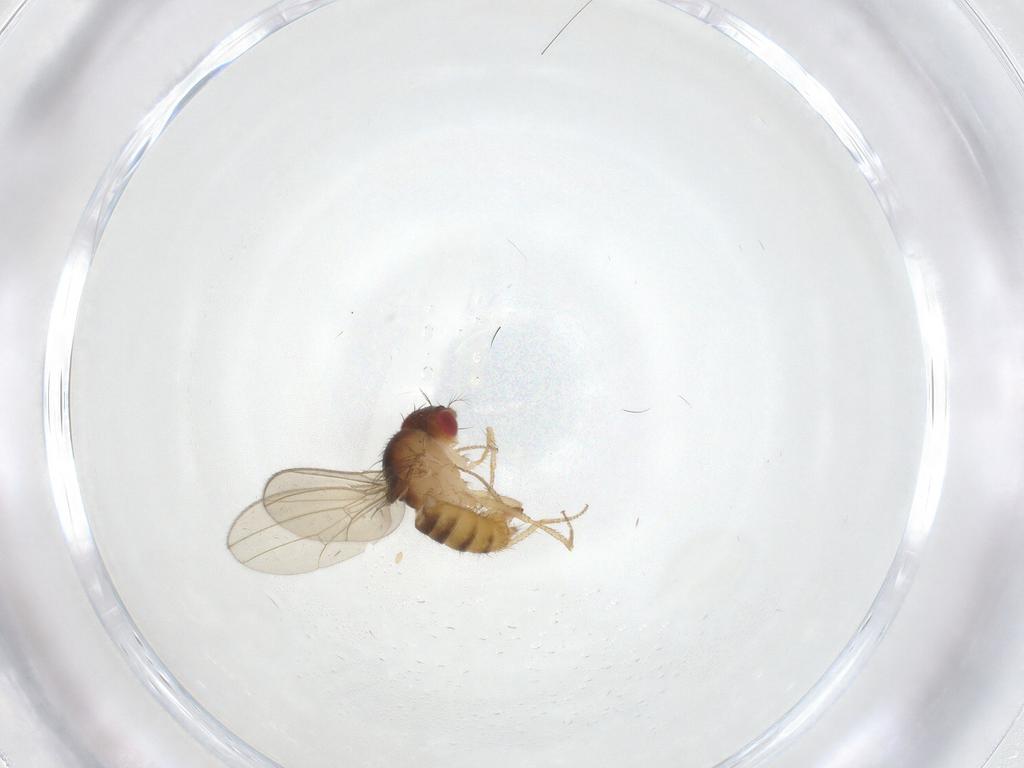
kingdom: Animalia
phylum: Arthropoda
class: Insecta
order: Diptera
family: Drosophilidae
